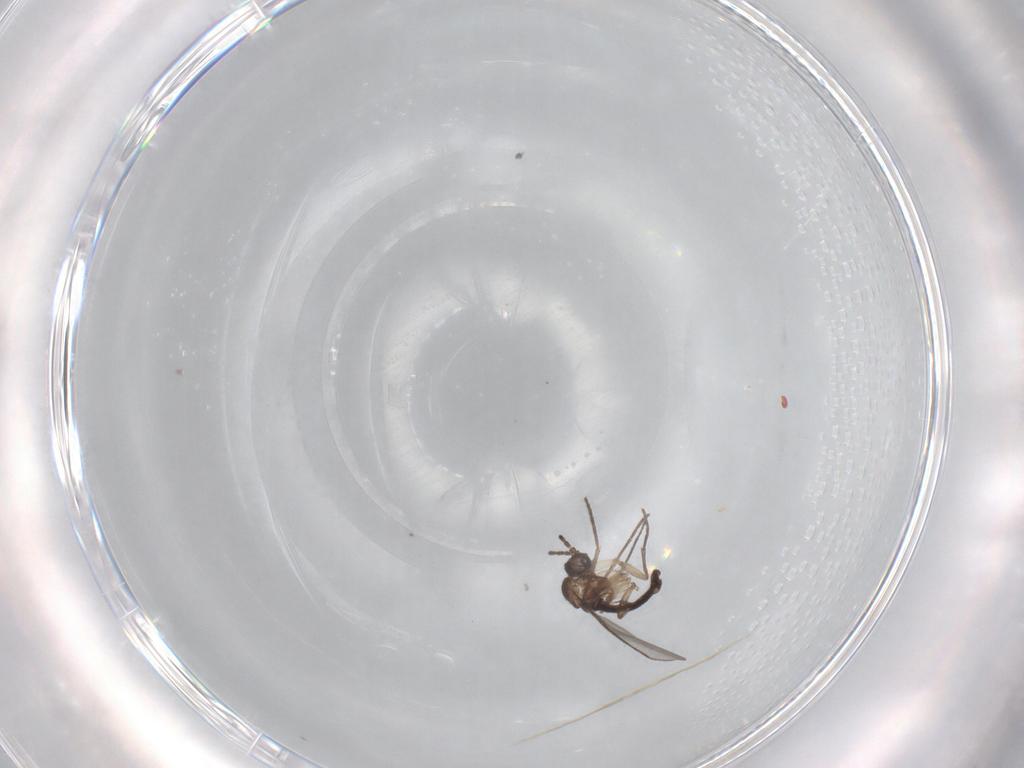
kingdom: Animalia
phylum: Arthropoda
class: Insecta
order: Diptera
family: Sciaridae
